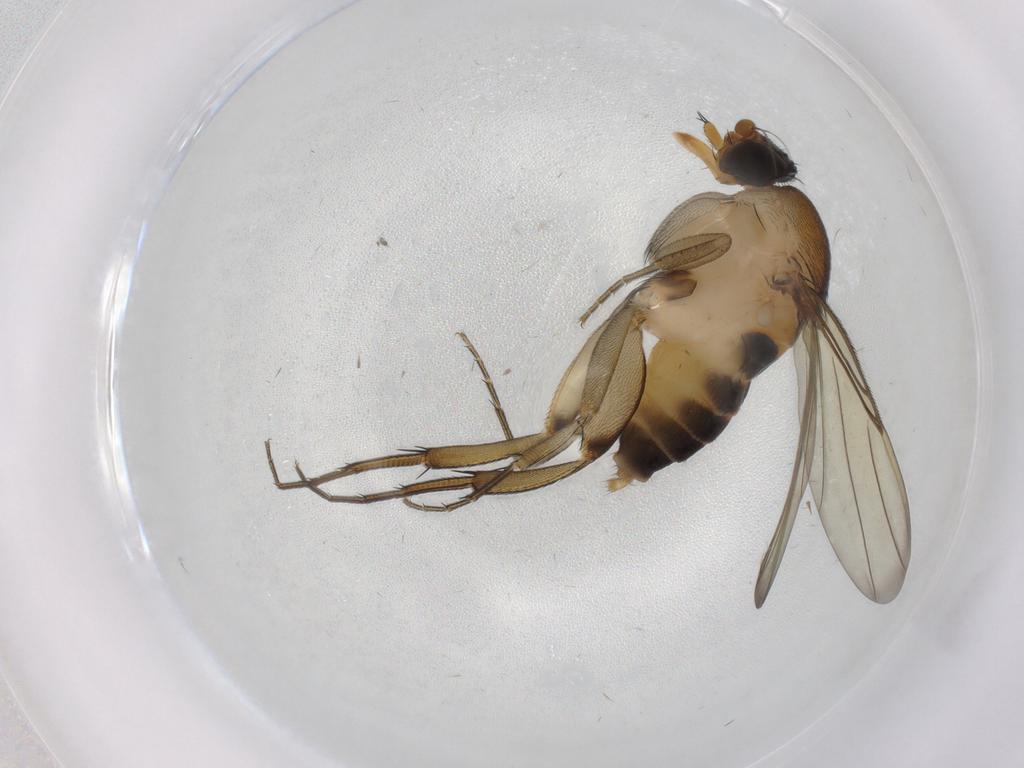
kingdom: Animalia
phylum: Arthropoda
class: Insecta
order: Diptera
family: Phoridae
